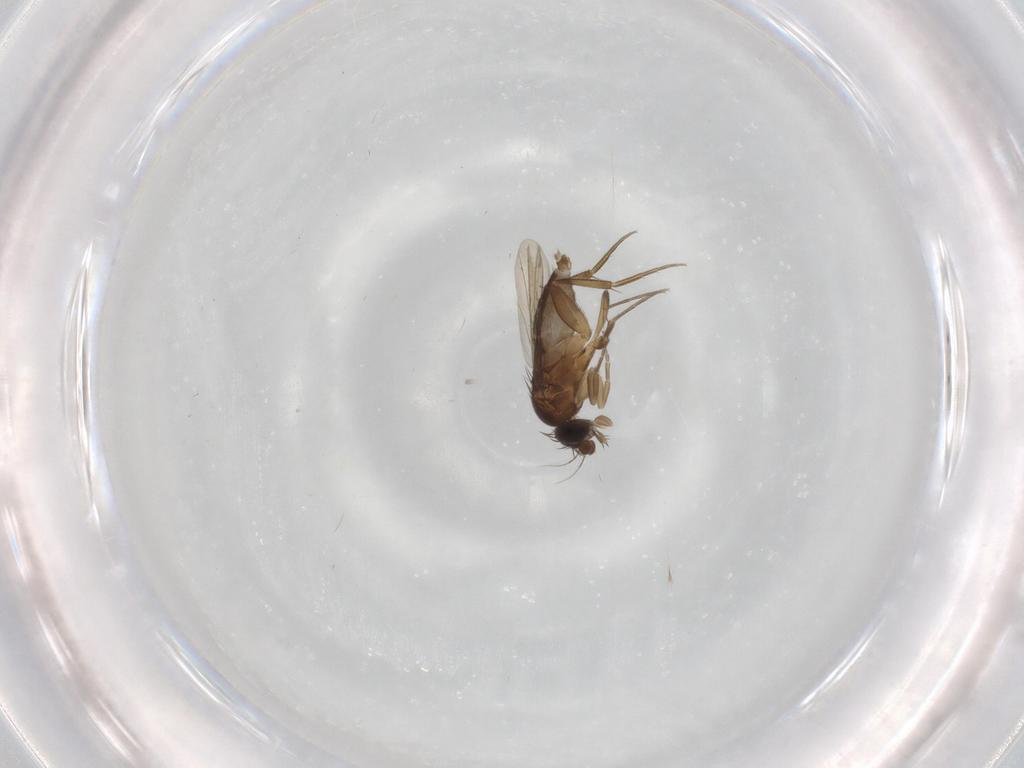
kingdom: Animalia
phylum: Arthropoda
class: Insecta
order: Diptera
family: Phoridae
